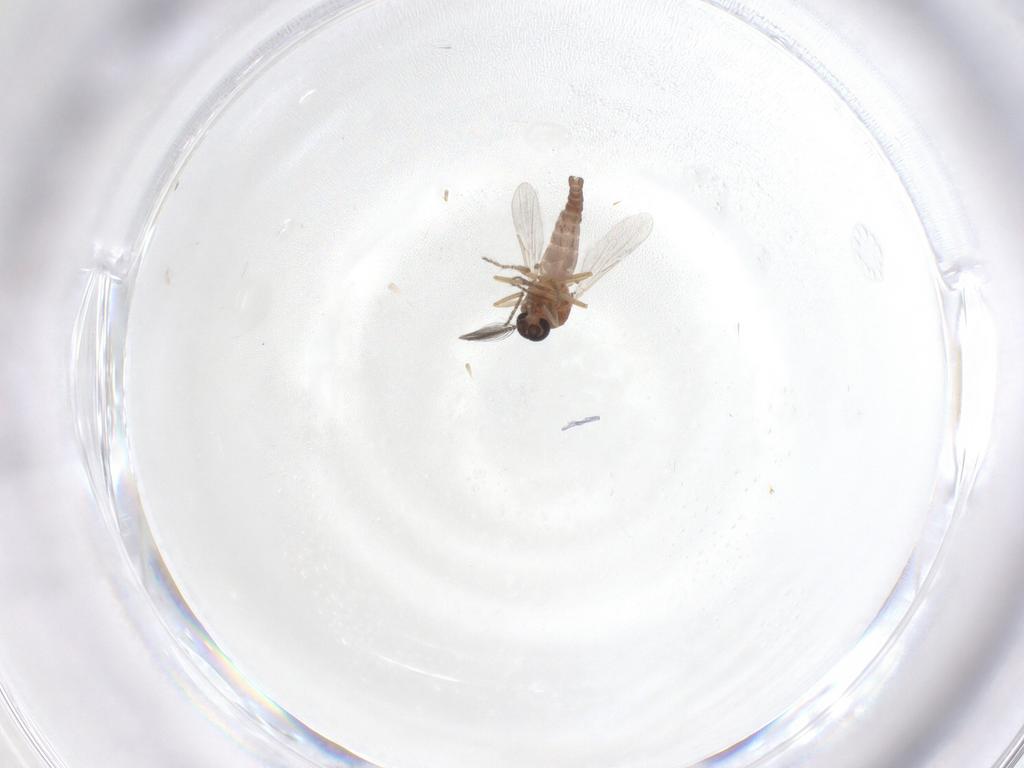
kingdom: Animalia
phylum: Arthropoda
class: Insecta
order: Diptera
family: Ceratopogonidae
